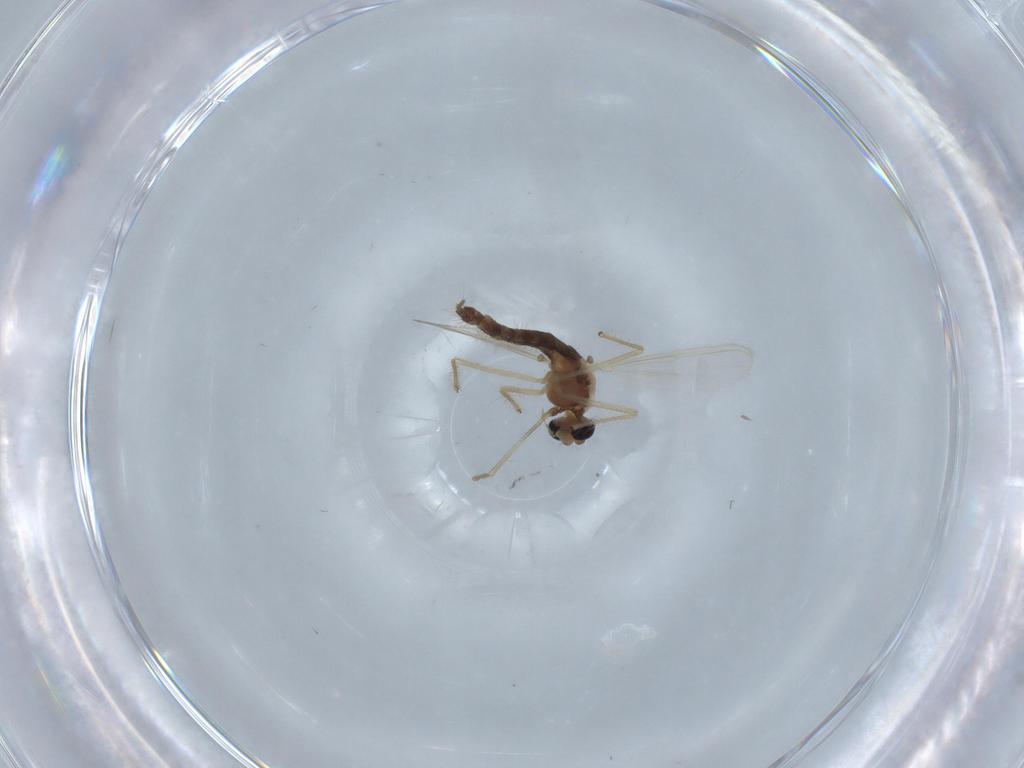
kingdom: Animalia
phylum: Arthropoda
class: Insecta
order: Diptera
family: Chironomidae
